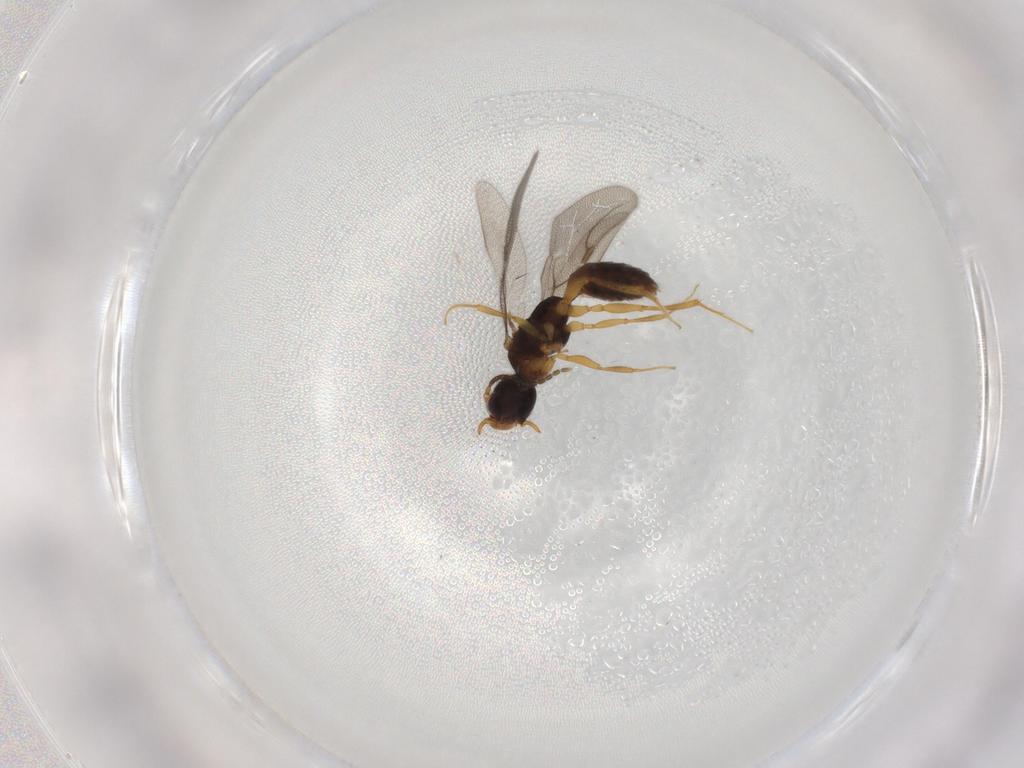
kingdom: Animalia
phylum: Arthropoda
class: Insecta
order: Hymenoptera
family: Bethylidae
